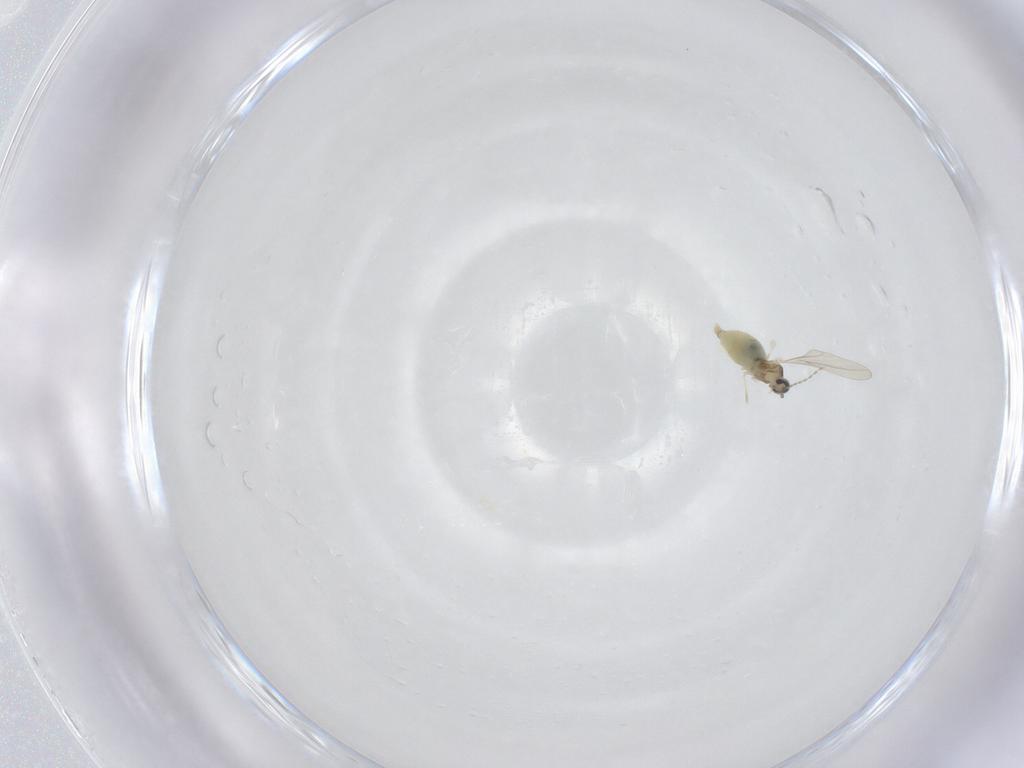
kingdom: Animalia
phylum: Arthropoda
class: Insecta
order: Diptera
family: Cecidomyiidae
